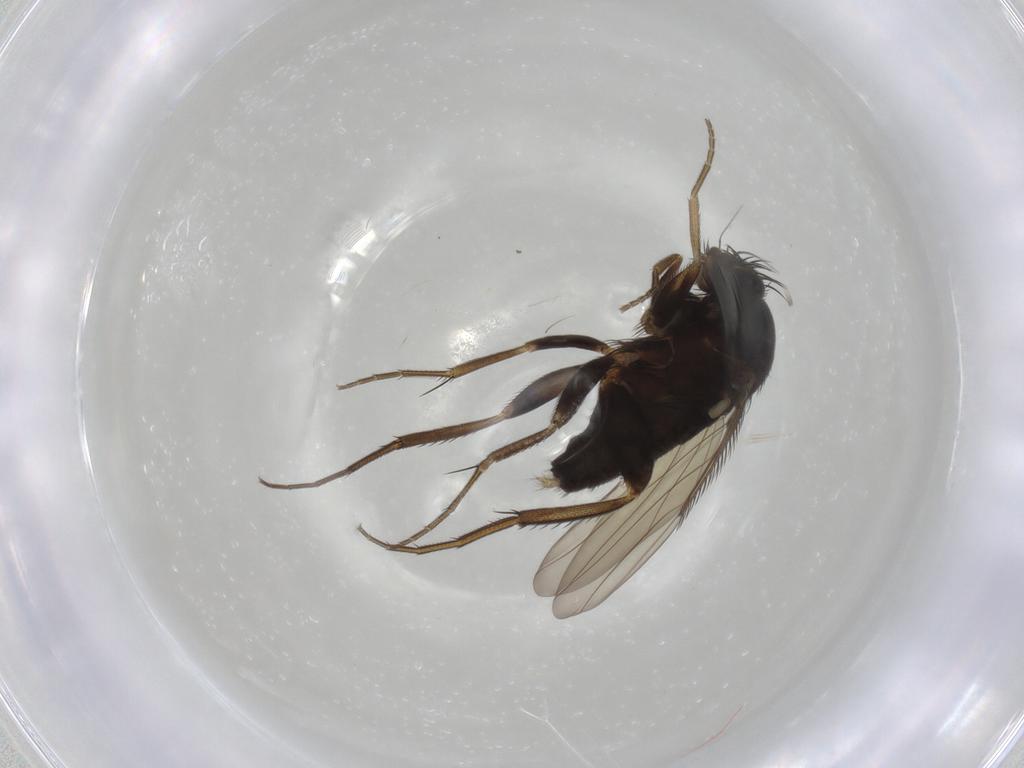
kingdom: Animalia
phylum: Arthropoda
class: Insecta
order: Diptera
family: Phoridae
